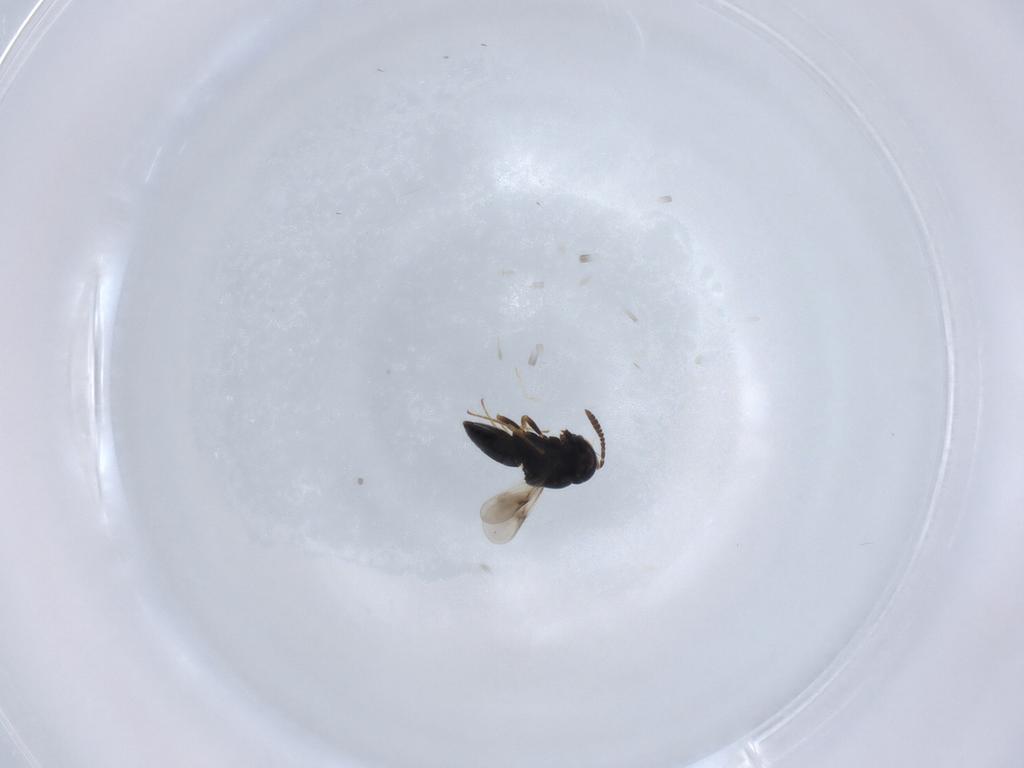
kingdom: Animalia
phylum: Arthropoda
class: Insecta
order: Hymenoptera
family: Scelionidae
